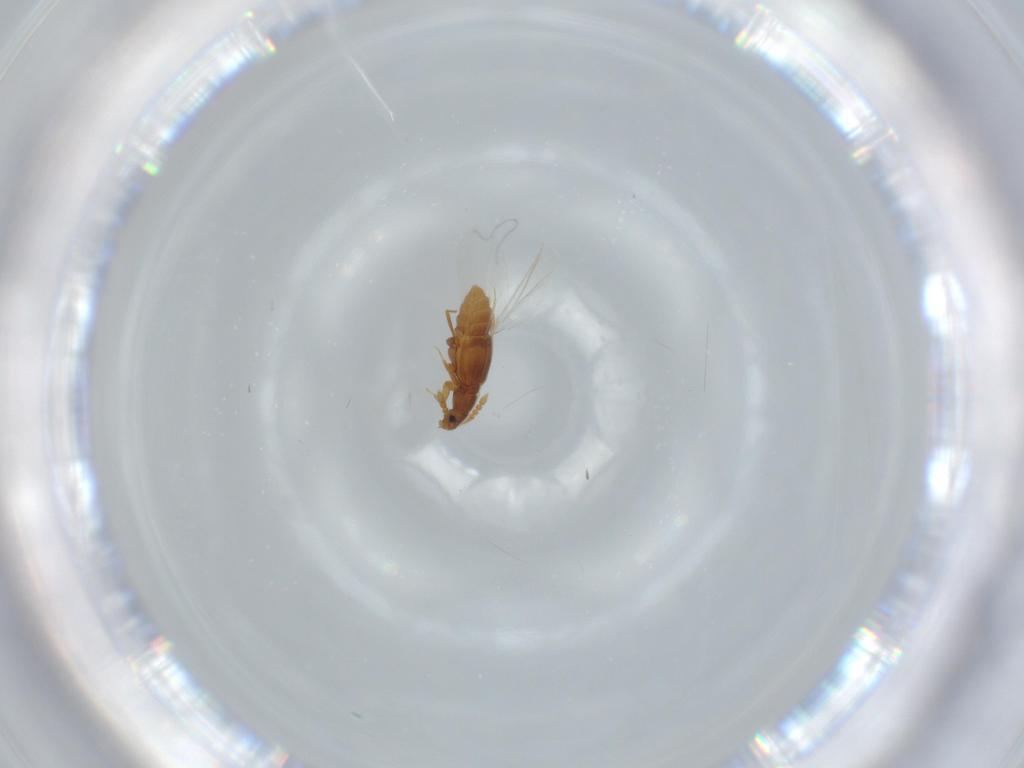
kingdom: Animalia
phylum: Arthropoda
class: Insecta
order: Coleoptera
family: Staphylinidae
